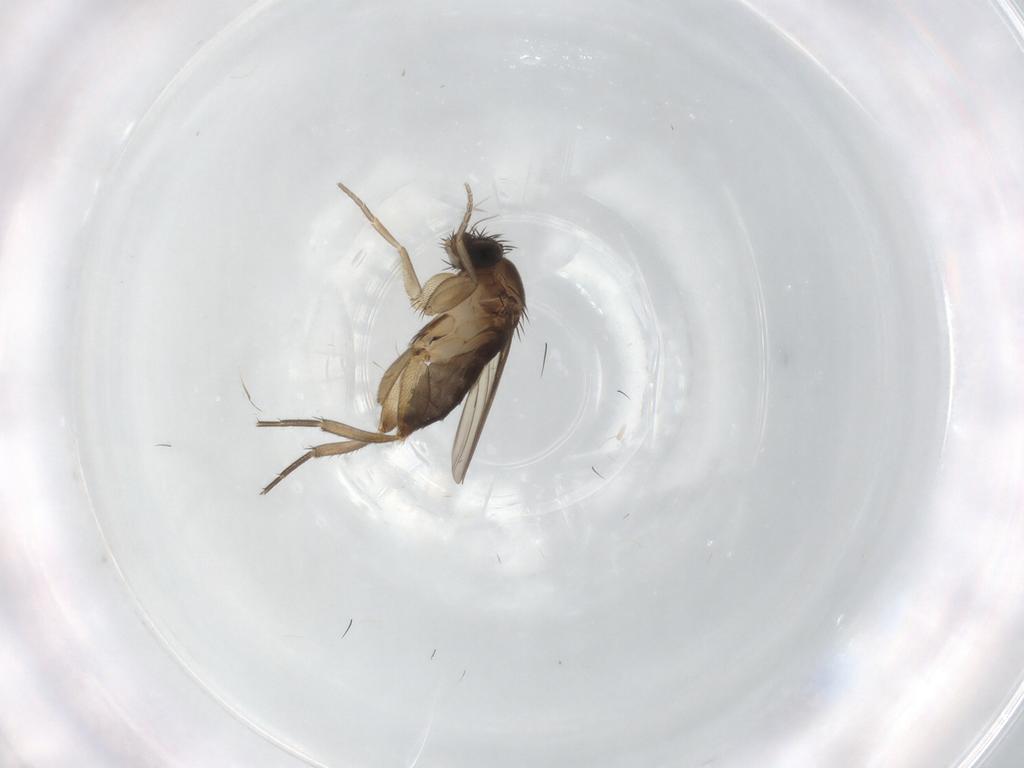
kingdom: Animalia
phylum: Arthropoda
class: Insecta
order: Diptera
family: Phoridae
